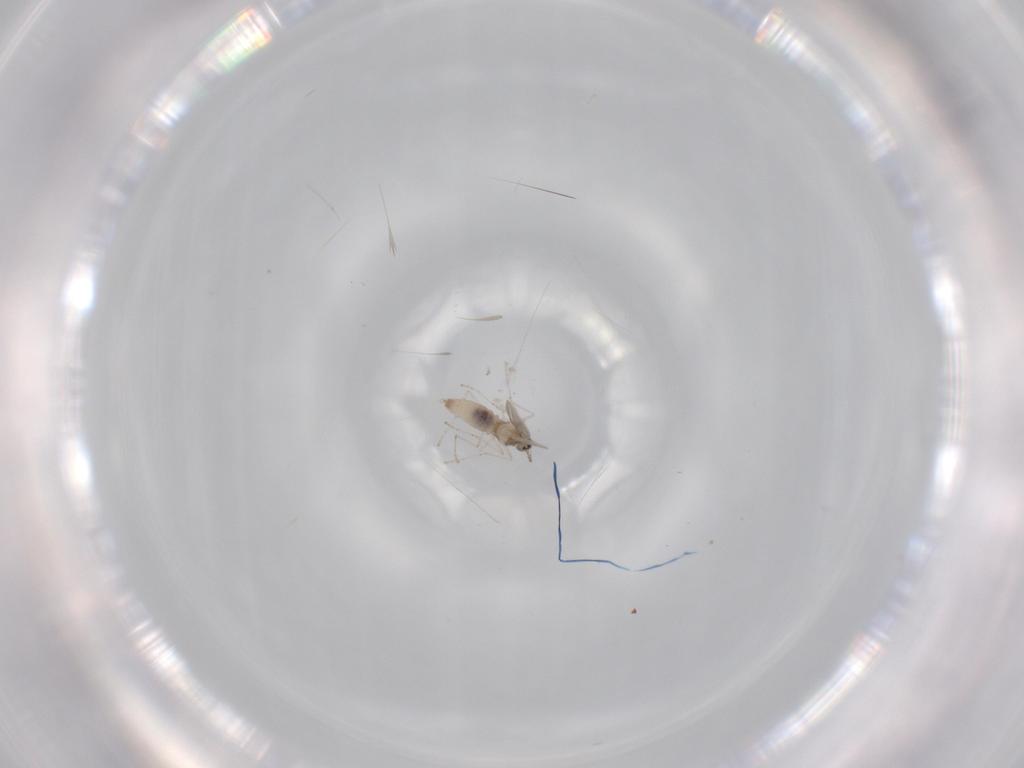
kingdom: Animalia
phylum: Arthropoda
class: Insecta
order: Diptera
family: Cecidomyiidae
